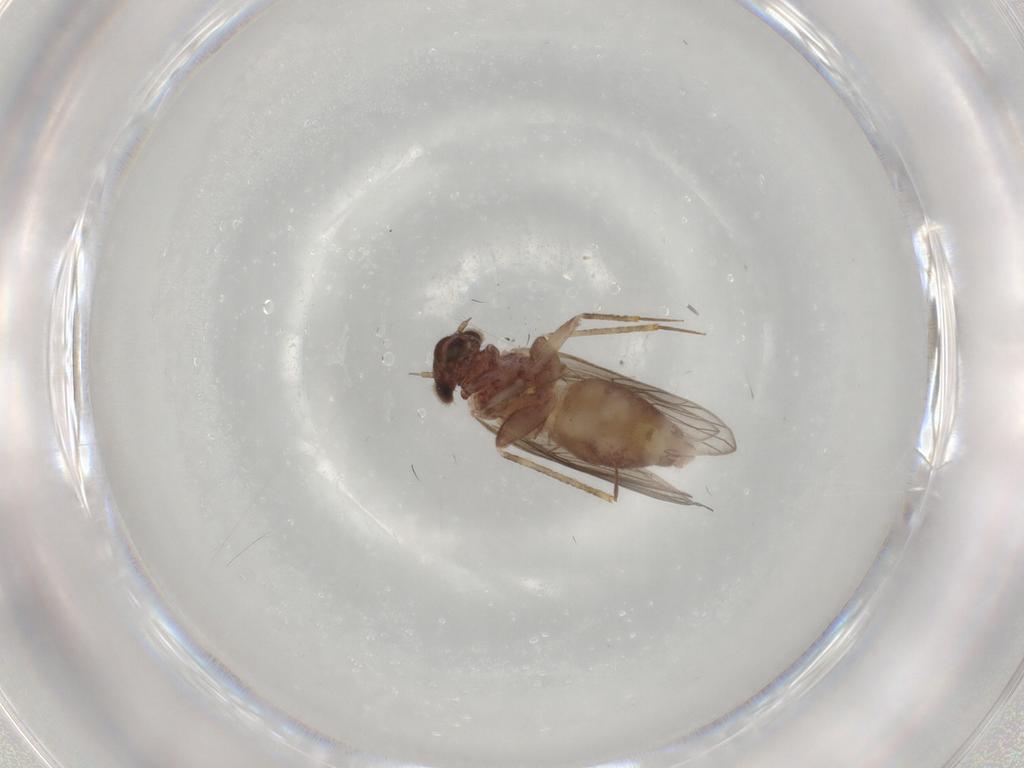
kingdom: Animalia
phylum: Arthropoda
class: Insecta
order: Psocodea
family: Lepidopsocidae
